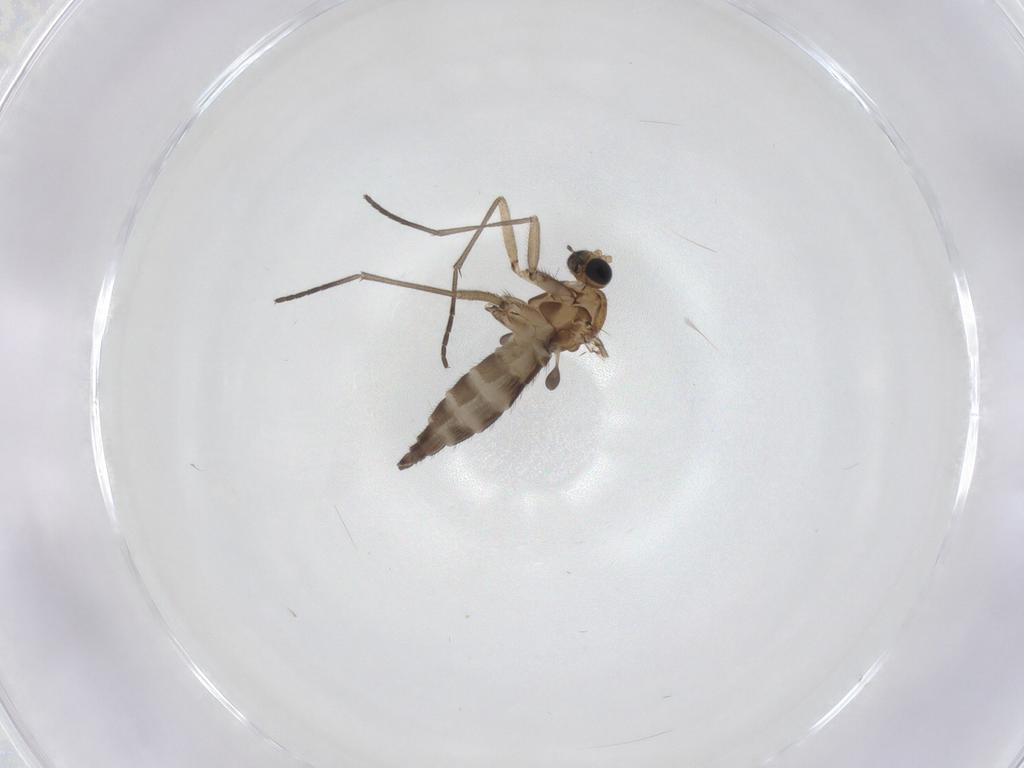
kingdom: Animalia
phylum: Arthropoda
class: Insecta
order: Diptera
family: Sciaridae
